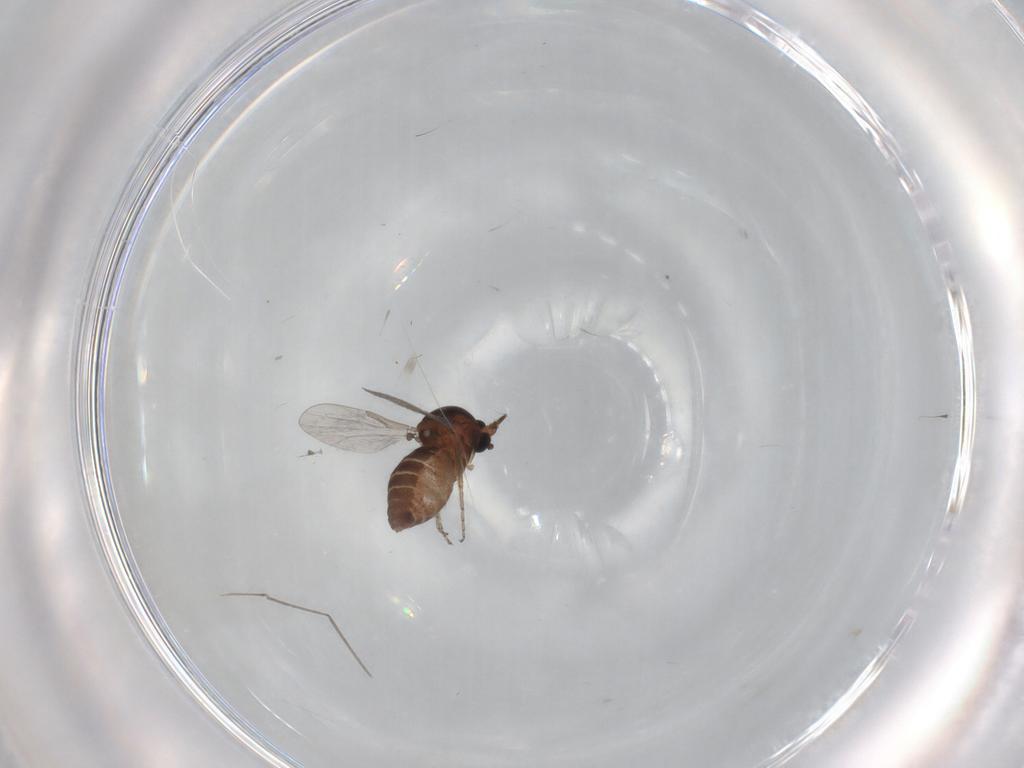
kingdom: Animalia
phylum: Arthropoda
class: Insecta
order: Diptera
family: Ceratopogonidae
